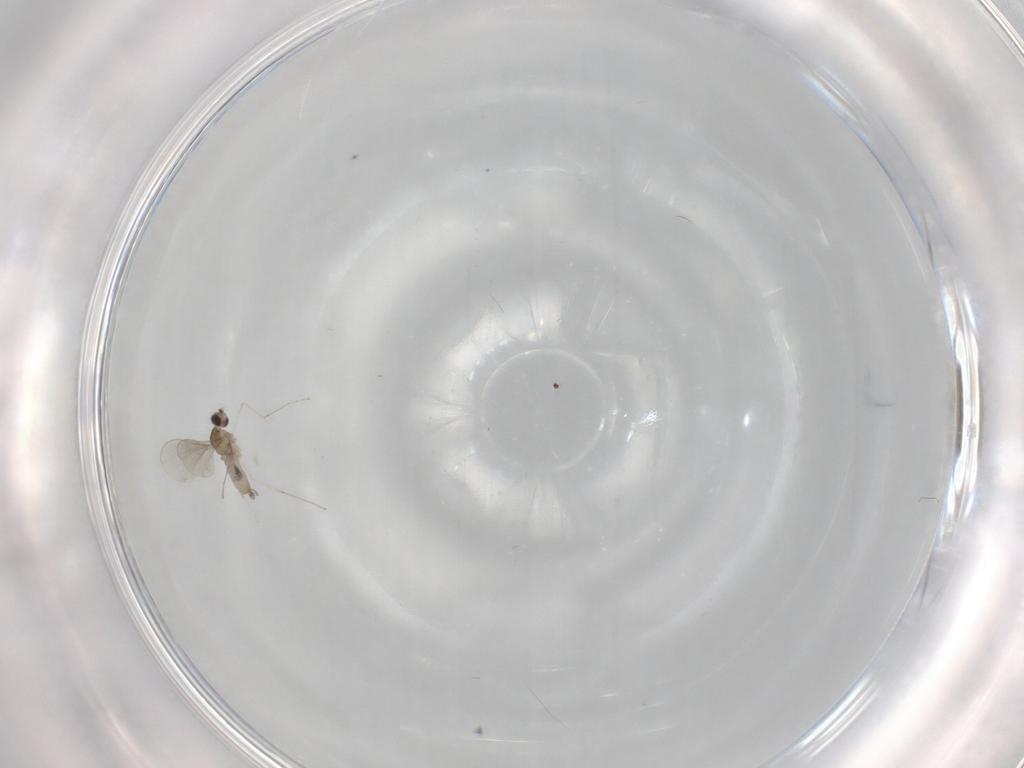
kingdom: Animalia
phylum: Arthropoda
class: Insecta
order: Diptera
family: Cecidomyiidae
